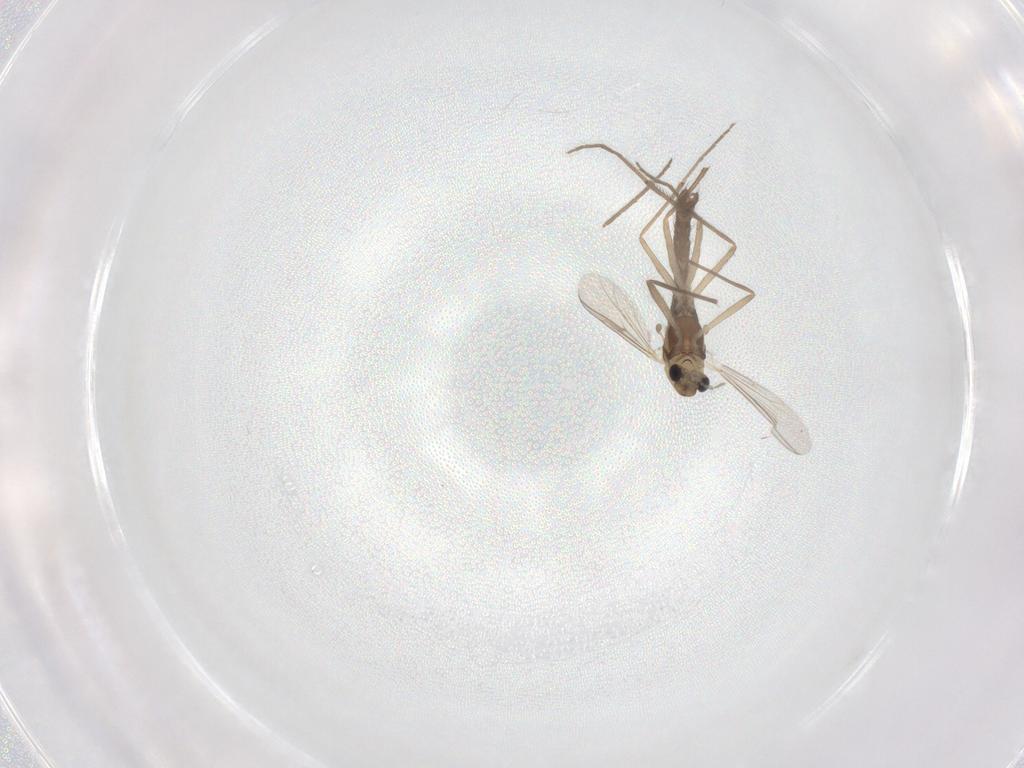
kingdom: Animalia
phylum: Arthropoda
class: Insecta
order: Diptera
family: Chironomidae
